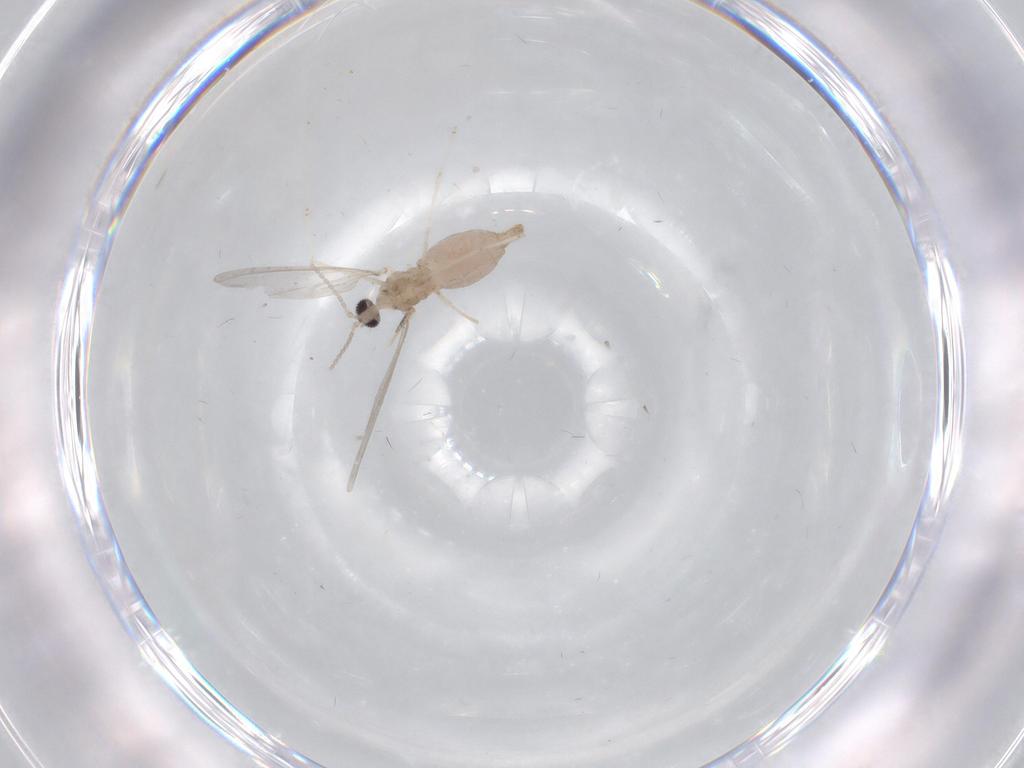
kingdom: Animalia
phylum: Arthropoda
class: Insecta
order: Diptera
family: Cecidomyiidae
